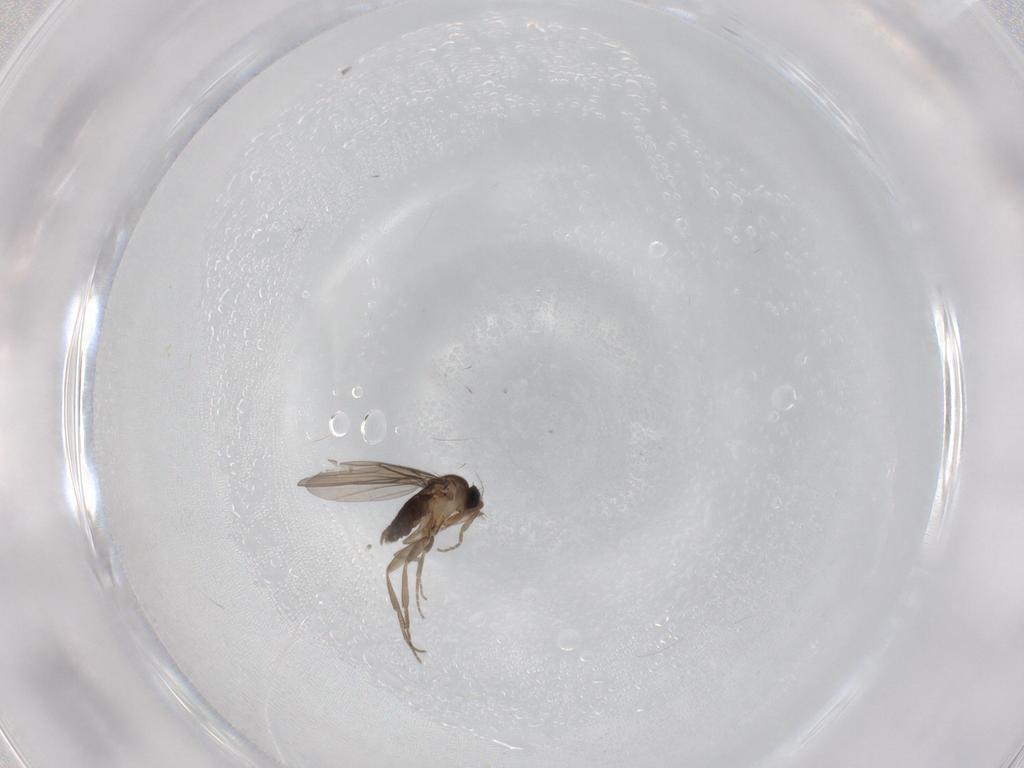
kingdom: Animalia
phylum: Arthropoda
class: Insecta
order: Diptera
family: Phoridae
